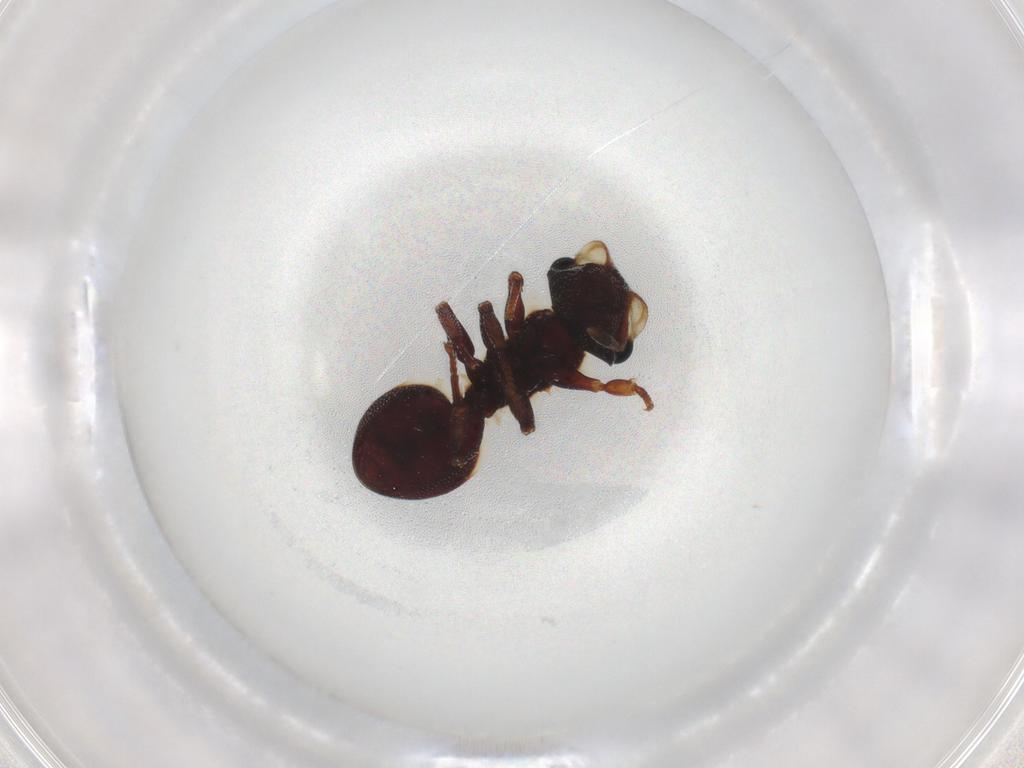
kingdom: Animalia
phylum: Arthropoda
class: Insecta
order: Hymenoptera
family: Formicidae
